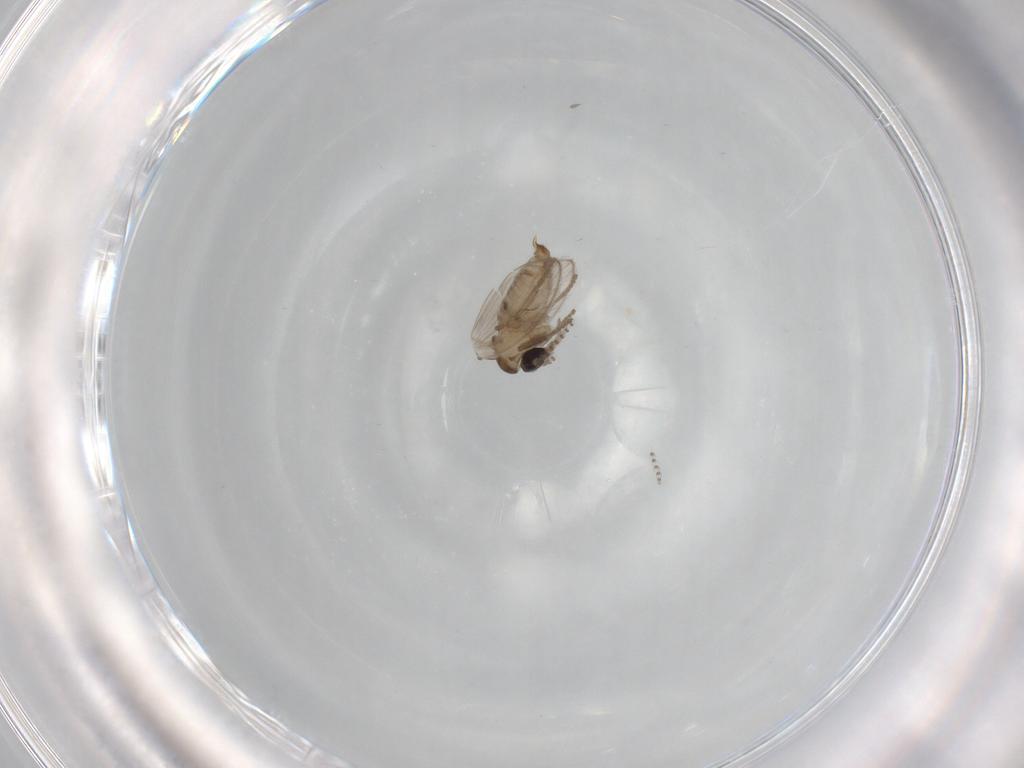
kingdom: Animalia
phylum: Arthropoda
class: Insecta
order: Diptera
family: Psychodidae
